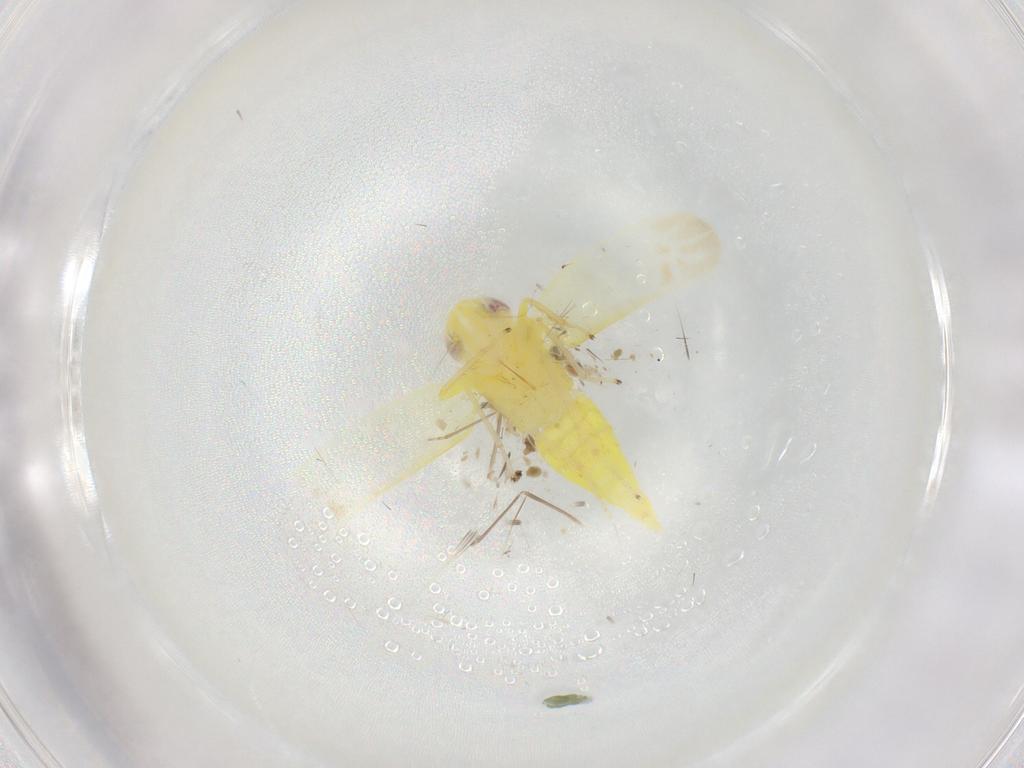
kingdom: Animalia
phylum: Arthropoda
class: Insecta
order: Hemiptera
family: Cicadellidae
